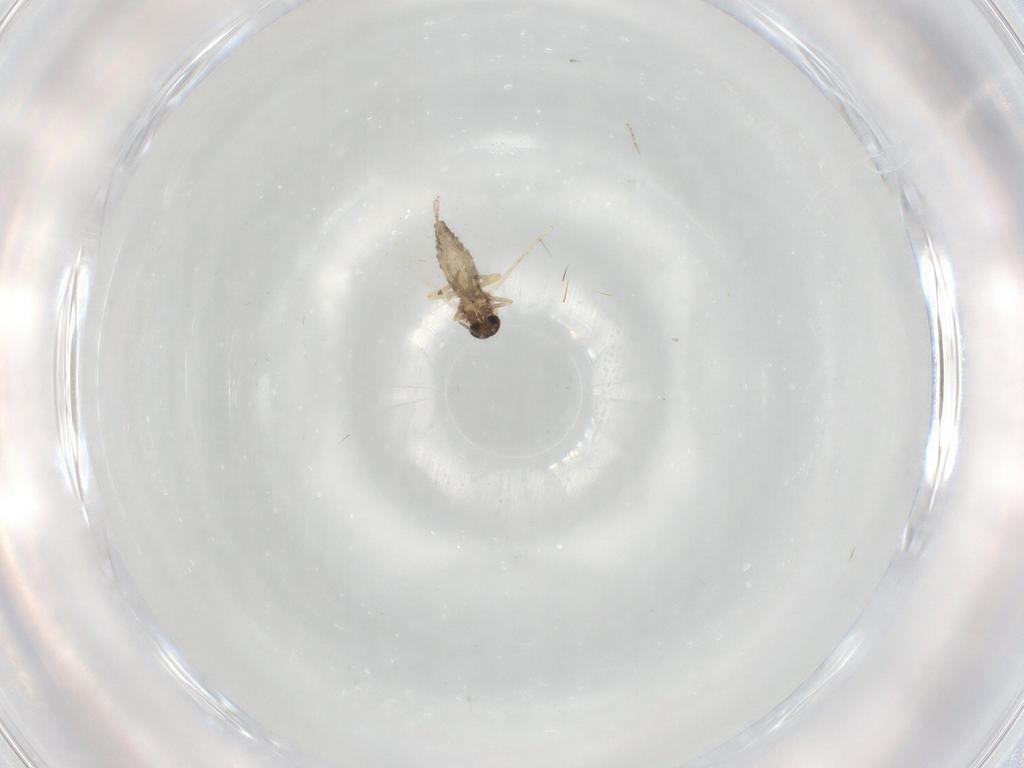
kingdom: Animalia
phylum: Arthropoda
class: Insecta
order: Diptera
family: Ceratopogonidae
